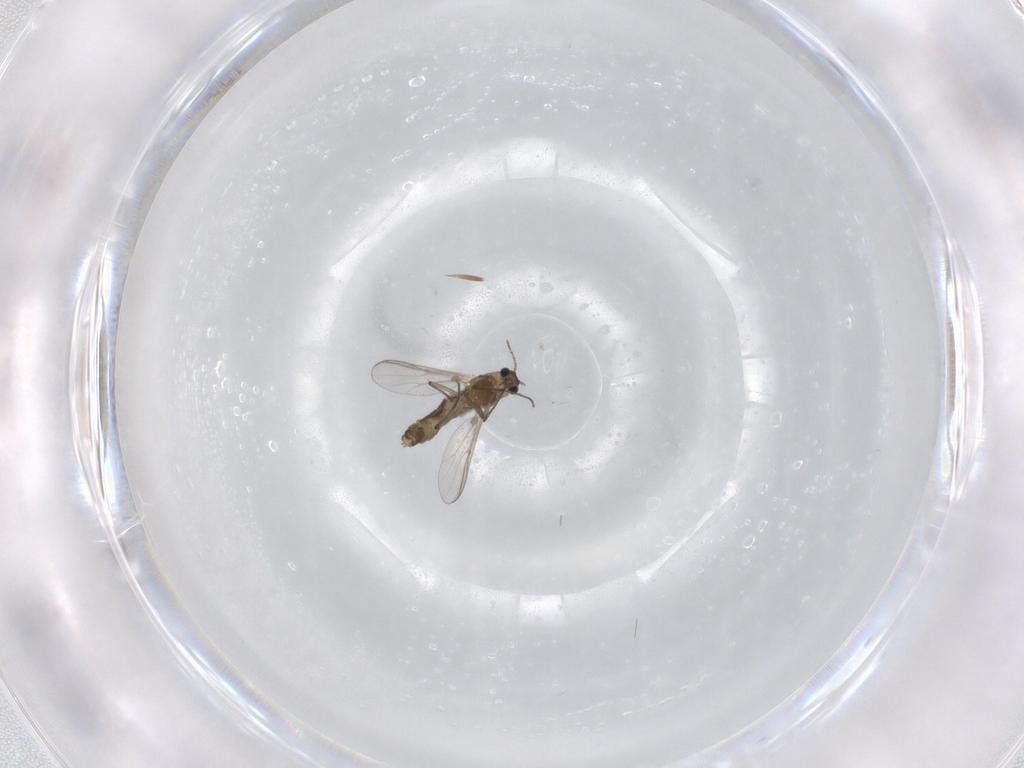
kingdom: Animalia
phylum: Arthropoda
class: Insecta
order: Diptera
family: Chironomidae
